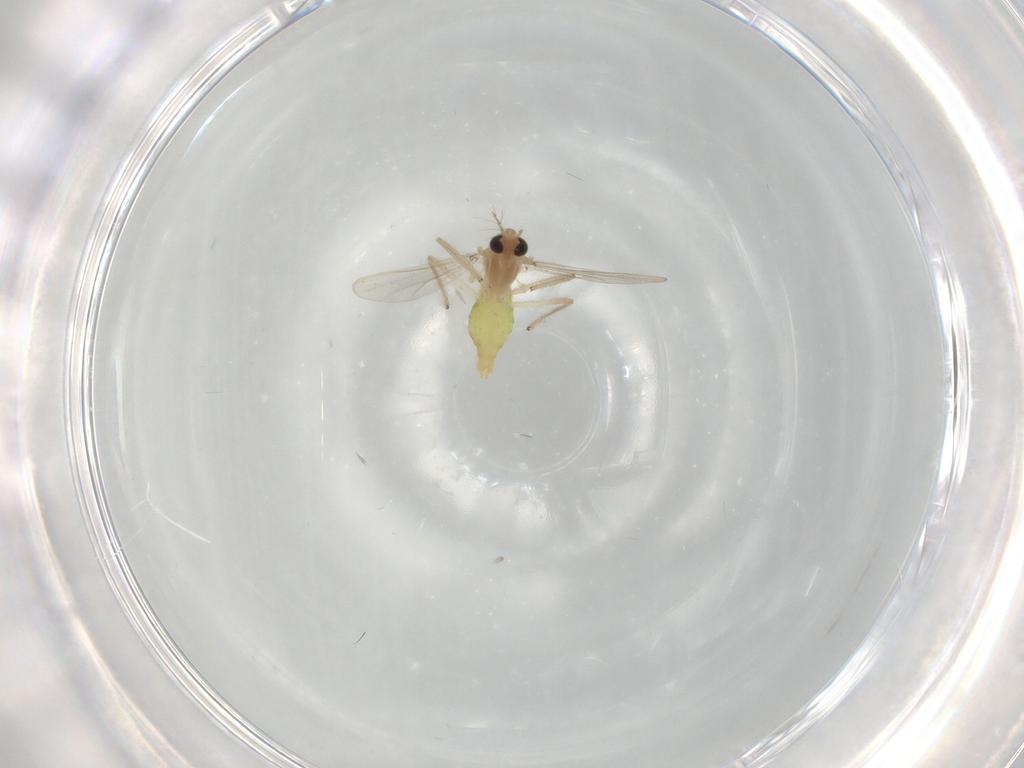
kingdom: Animalia
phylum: Arthropoda
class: Insecta
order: Diptera
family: Chironomidae
